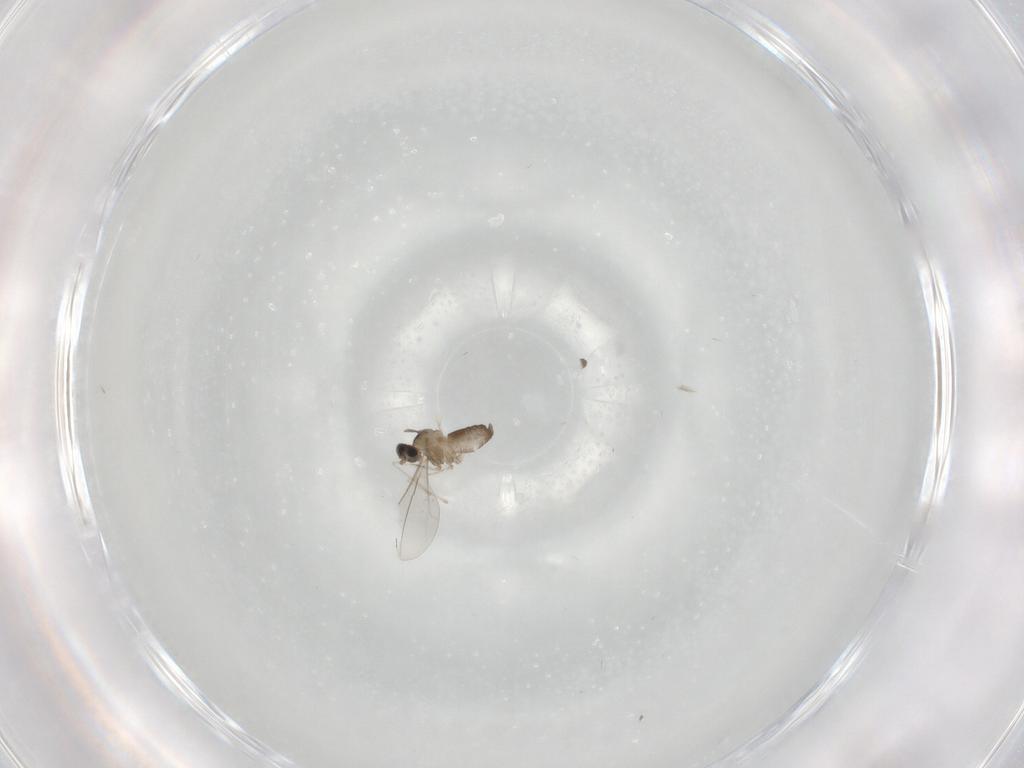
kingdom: Animalia
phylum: Arthropoda
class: Insecta
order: Diptera
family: Cecidomyiidae
